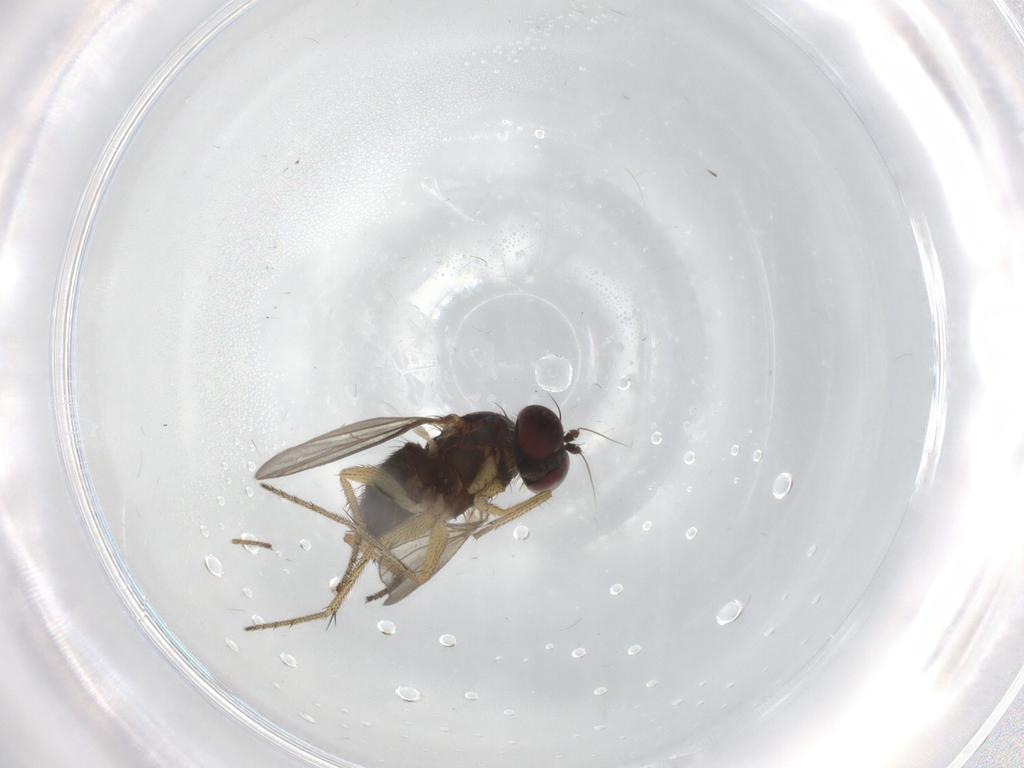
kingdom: Animalia
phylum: Arthropoda
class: Insecta
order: Diptera
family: Dolichopodidae
